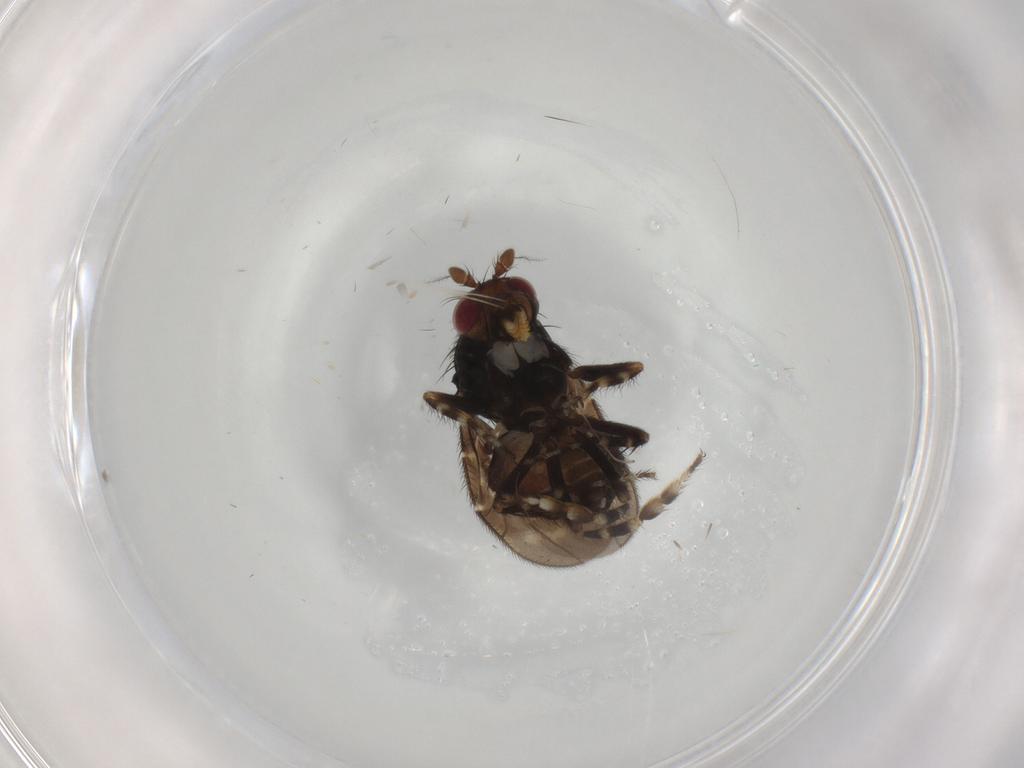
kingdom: Animalia
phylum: Arthropoda
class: Insecta
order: Diptera
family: Sphaeroceridae
